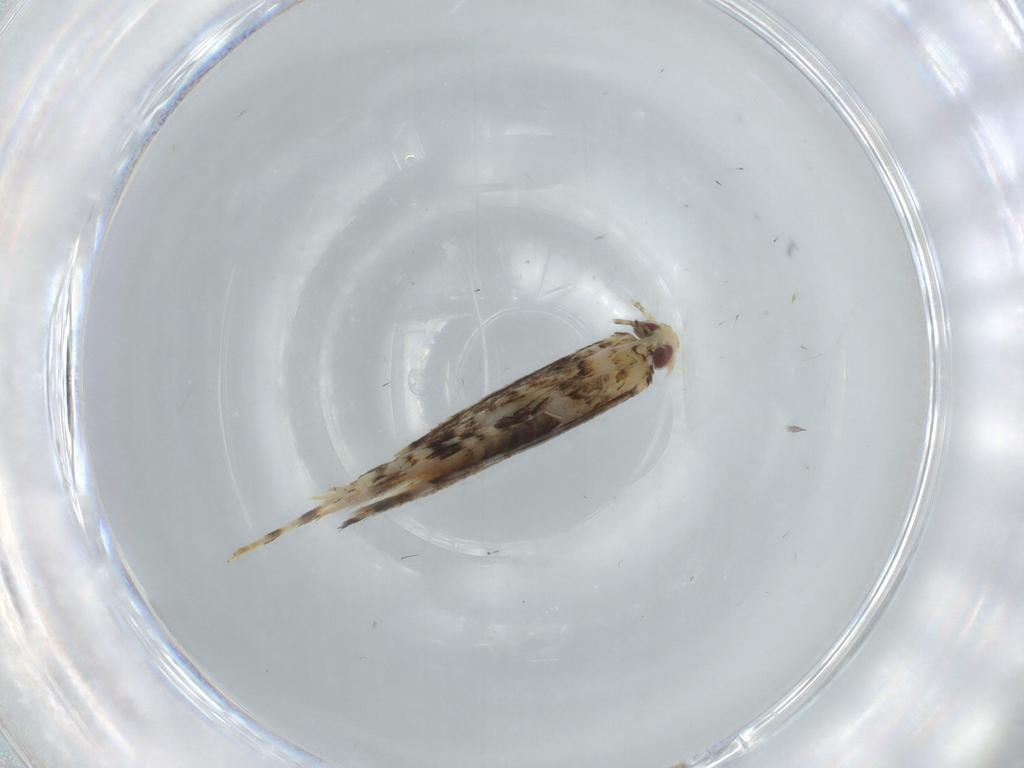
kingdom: Animalia
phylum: Arthropoda
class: Insecta
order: Lepidoptera
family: Gracillariidae
